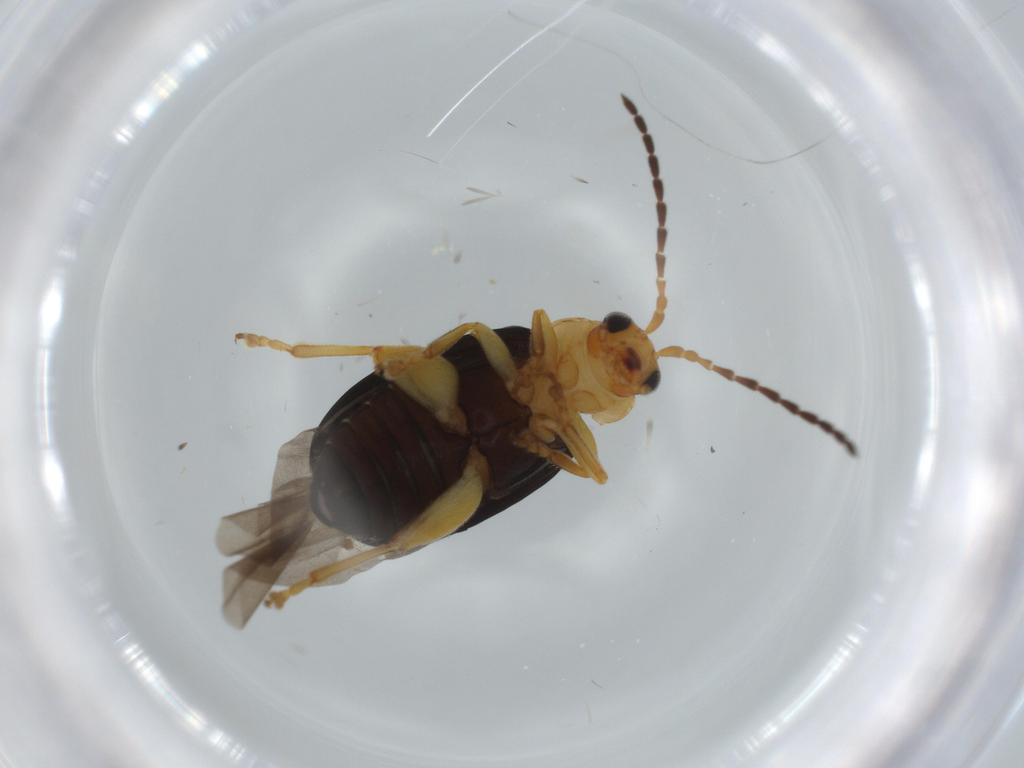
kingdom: Animalia
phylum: Arthropoda
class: Insecta
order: Coleoptera
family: Chrysomelidae
